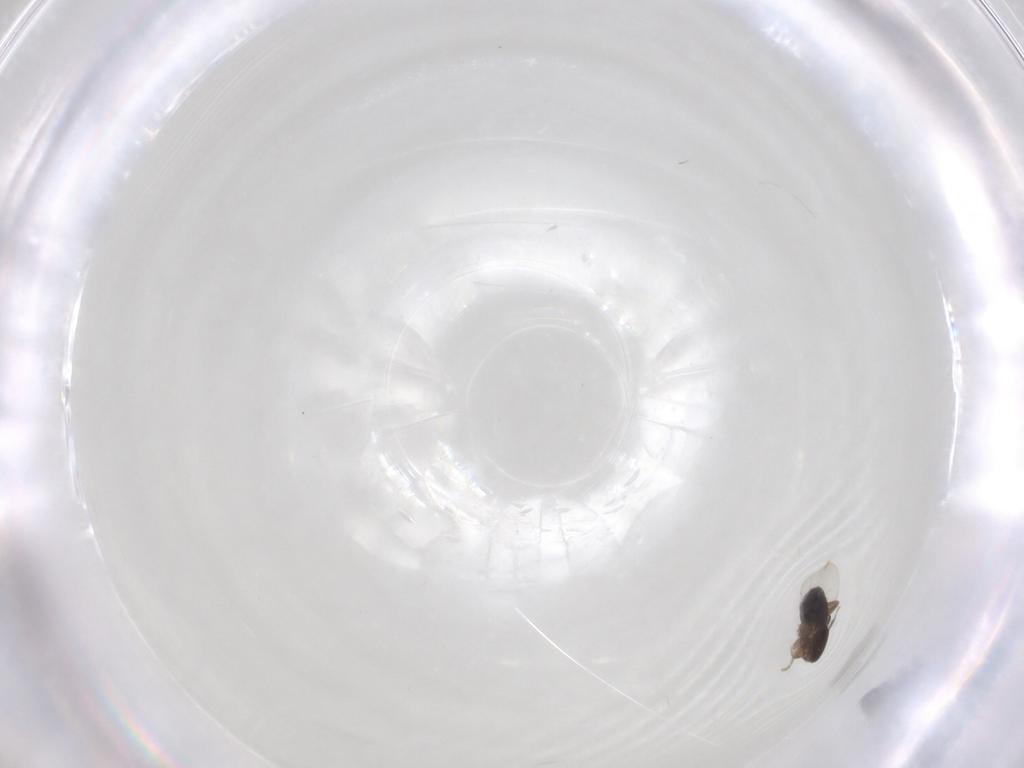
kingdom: Animalia
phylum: Arthropoda
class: Insecta
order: Diptera
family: Phoridae
